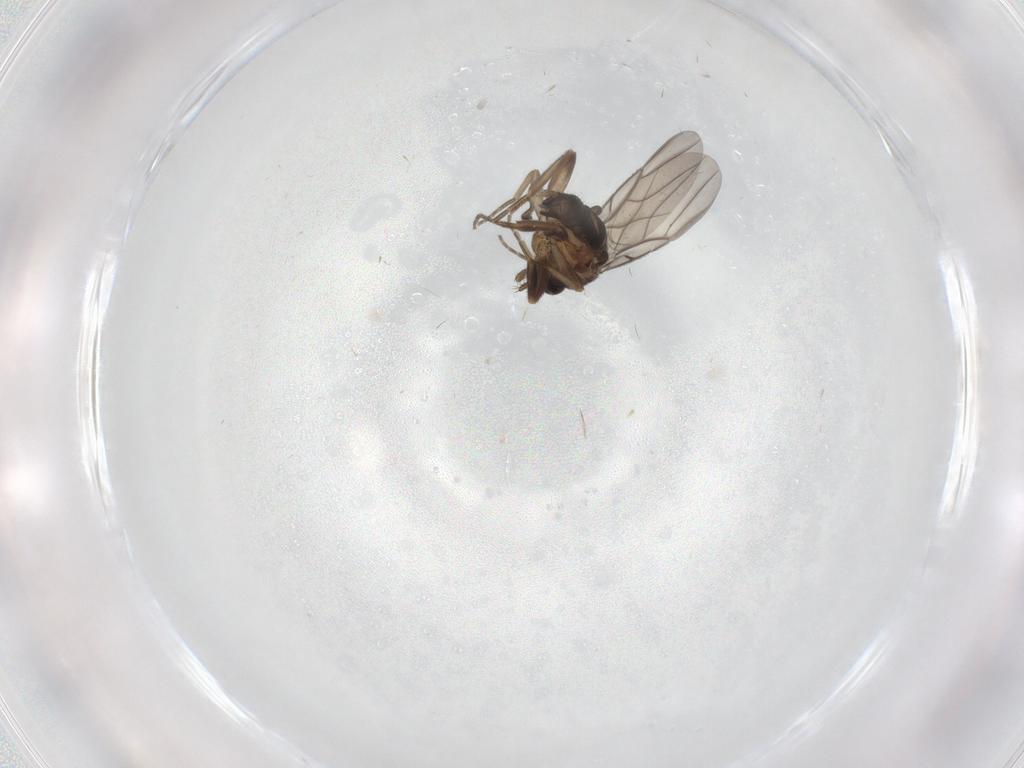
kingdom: Animalia
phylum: Arthropoda
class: Insecta
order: Diptera
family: Phoridae
